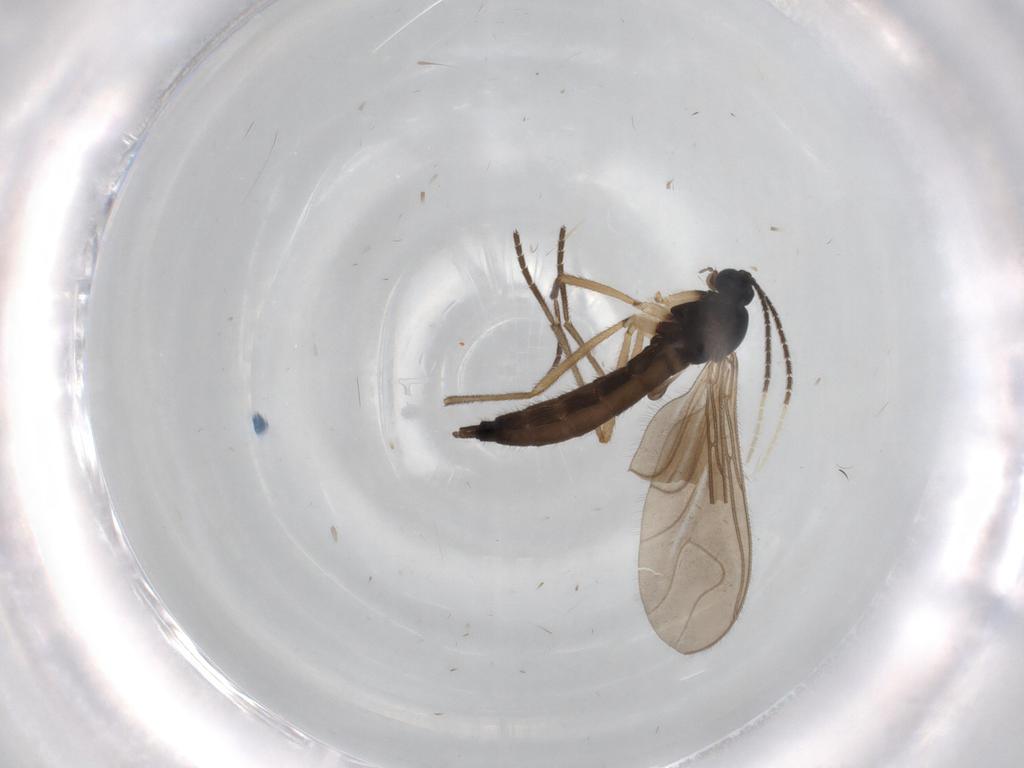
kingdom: Animalia
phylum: Arthropoda
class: Insecta
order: Diptera
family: Sciaridae
